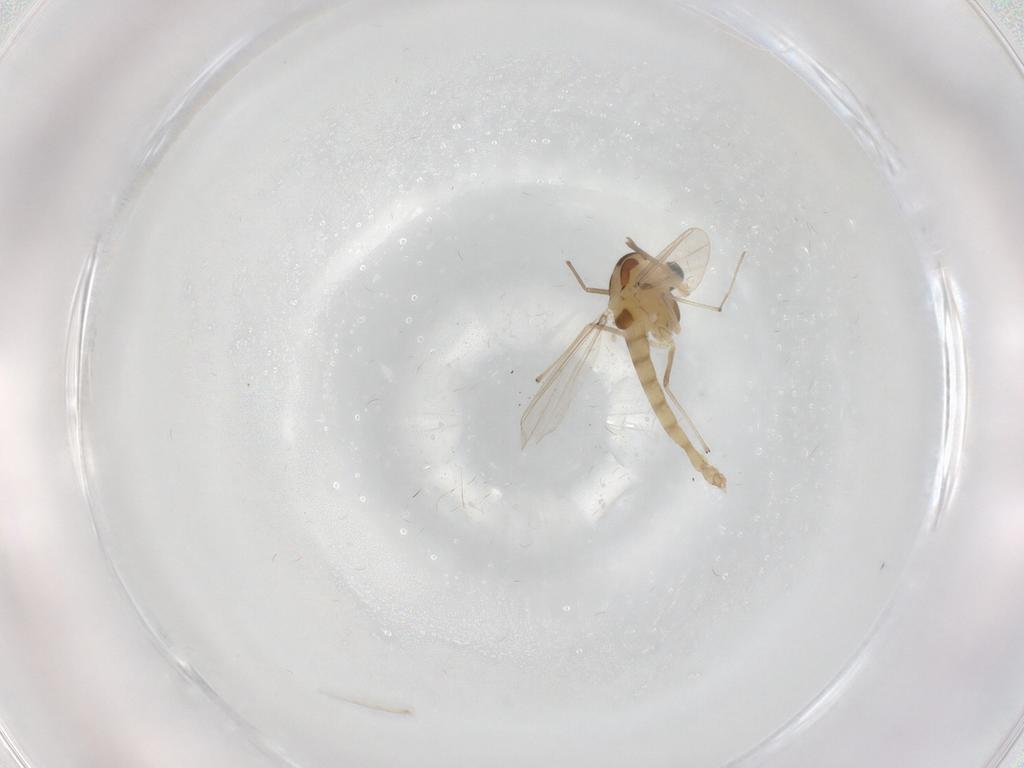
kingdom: Animalia
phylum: Arthropoda
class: Insecta
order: Diptera
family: Chironomidae
